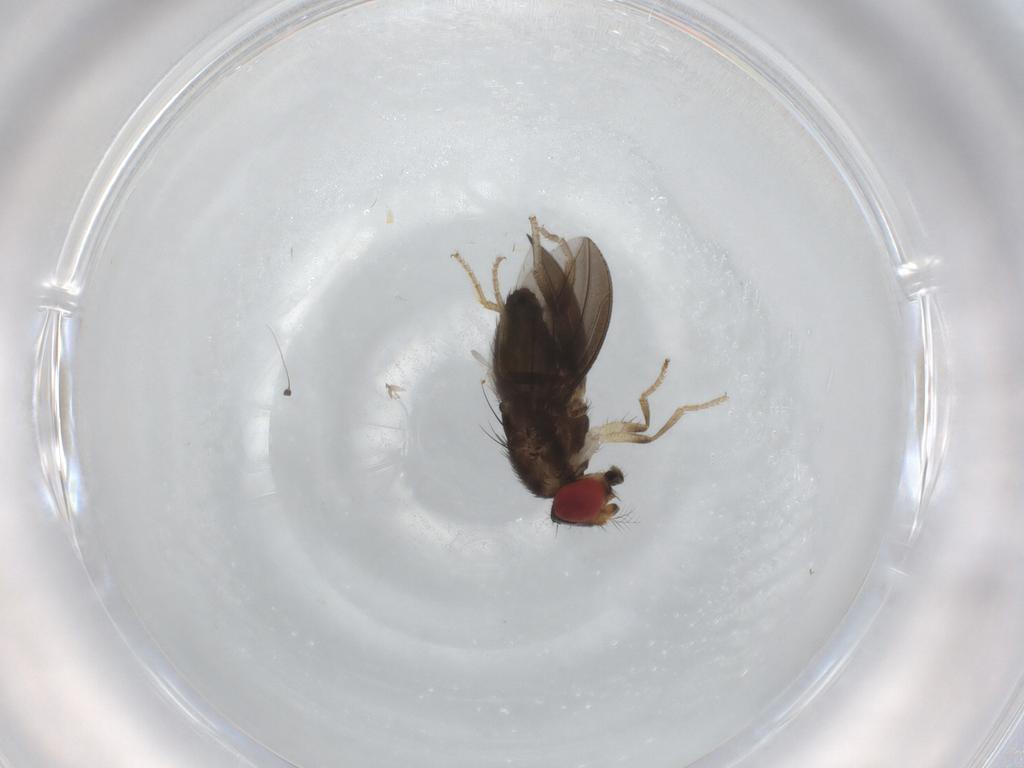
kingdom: Animalia
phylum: Arthropoda
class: Insecta
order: Diptera
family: Drosophilidae
